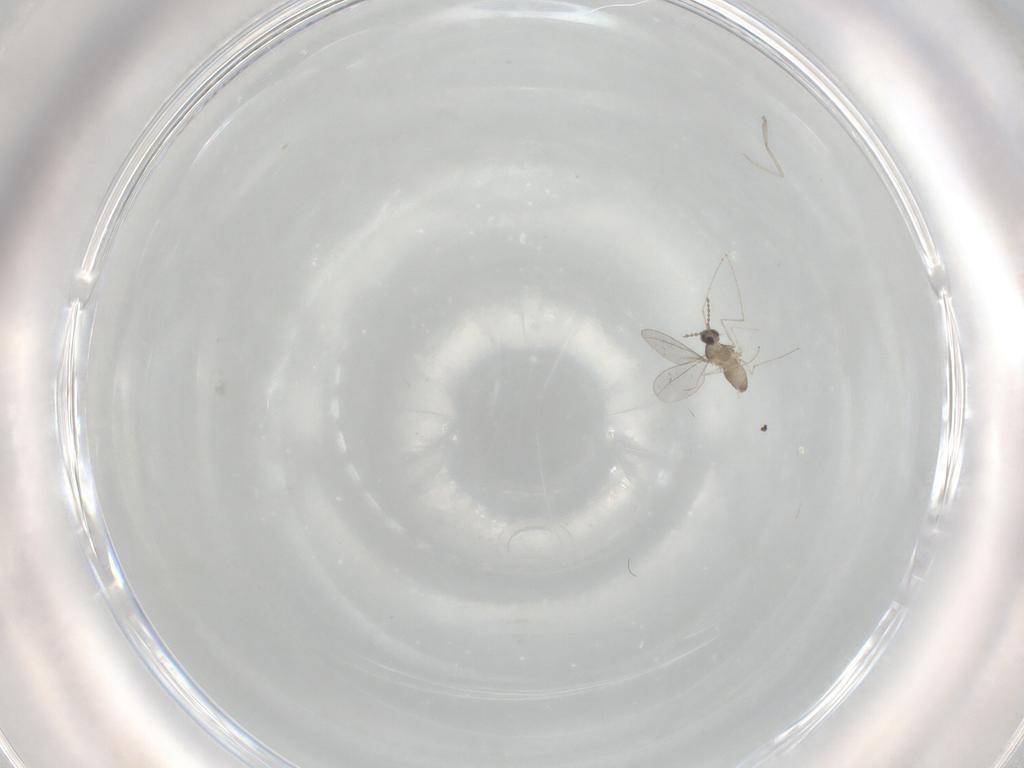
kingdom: Animalia
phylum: Arthropoda
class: Insecta
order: Diptera
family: Cecidomyiidae
